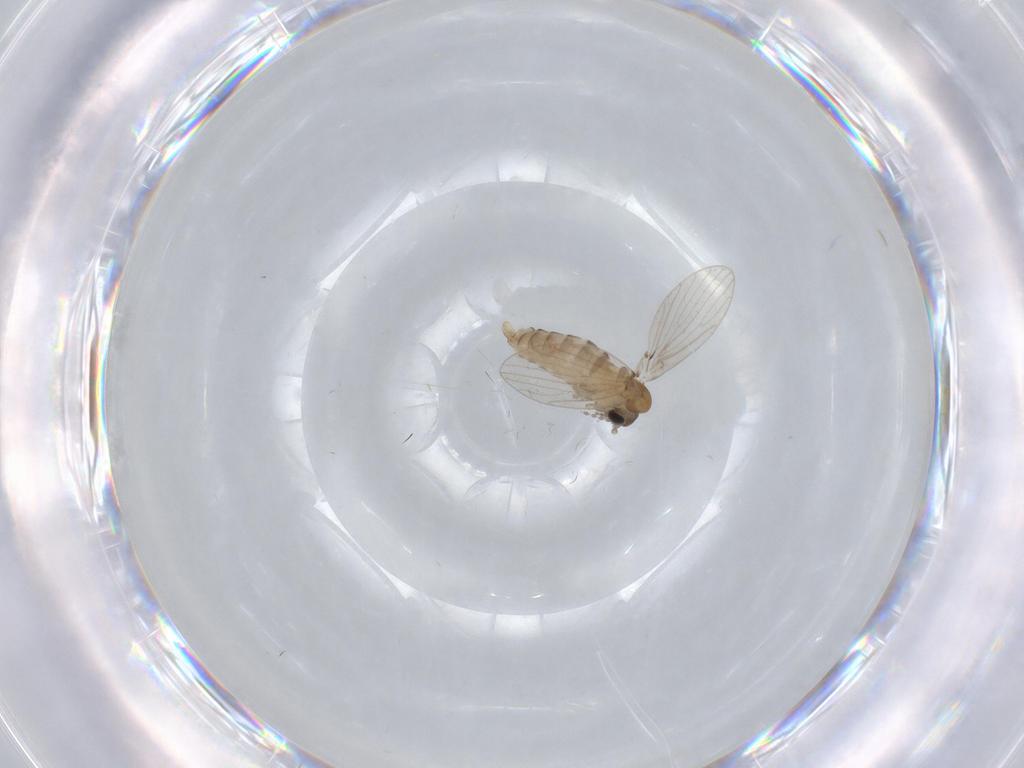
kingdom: Animalia
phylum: Arthropoda
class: Insecta
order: Diptera
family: Psychodidae
